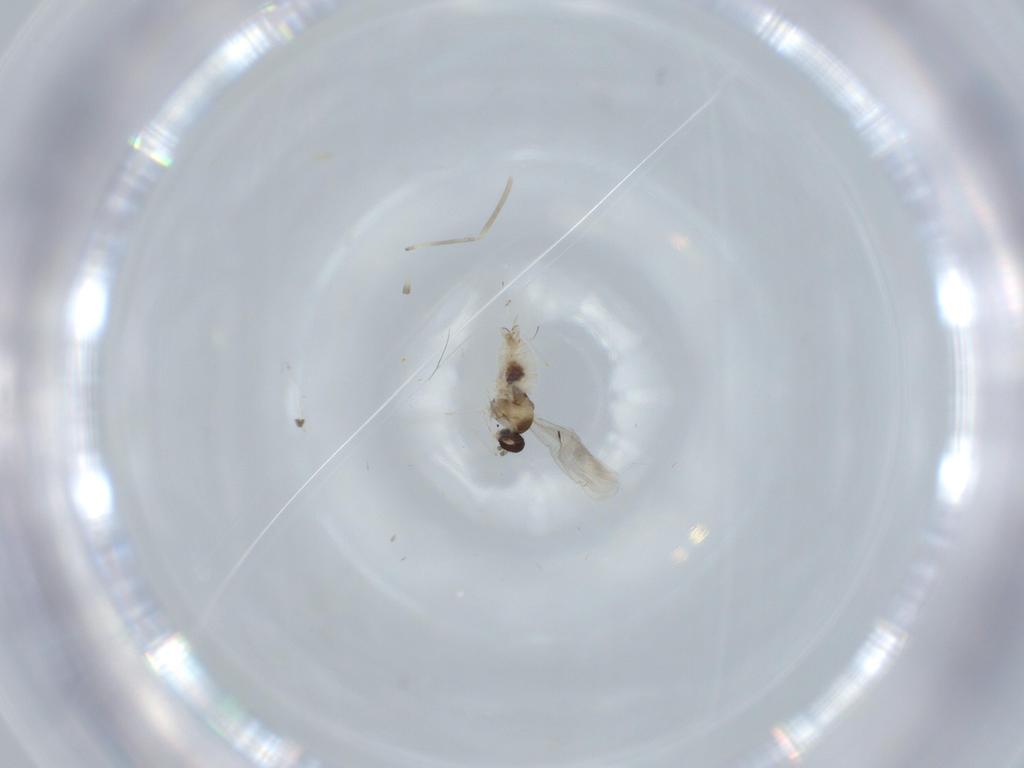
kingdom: Animalia
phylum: Arthropoda
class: Insecta
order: Diptera
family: Cecidomyiidae
